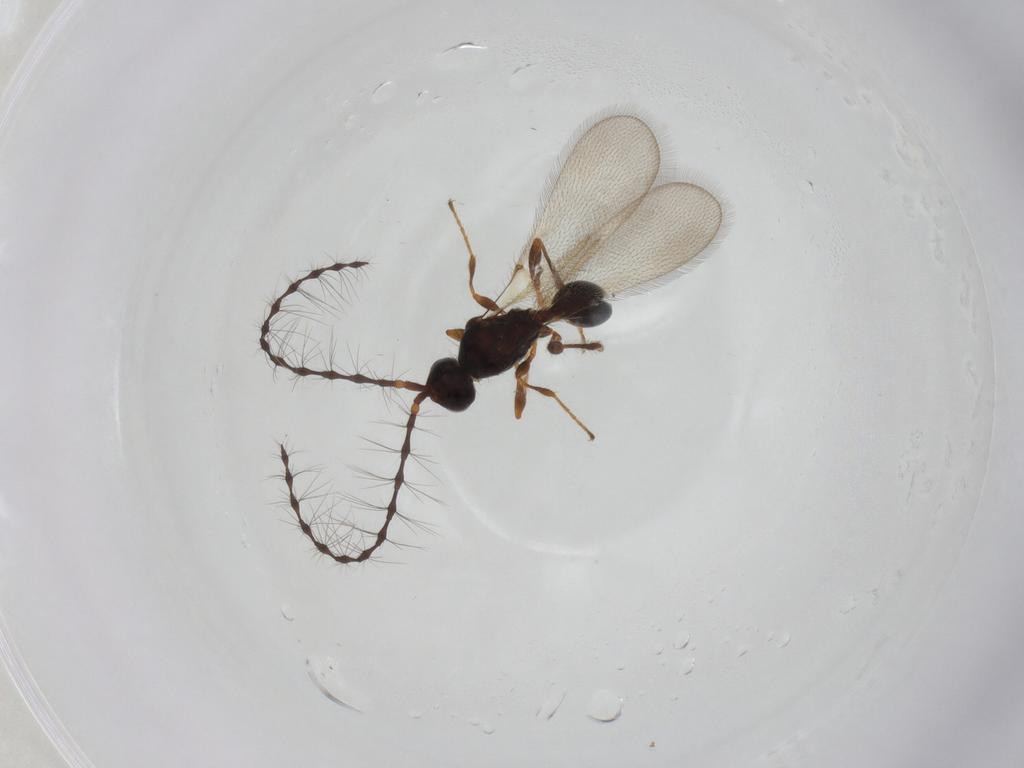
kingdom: Animalia
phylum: Arthropoda
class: Insecta
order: Hymenoptera
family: Diapriidae
